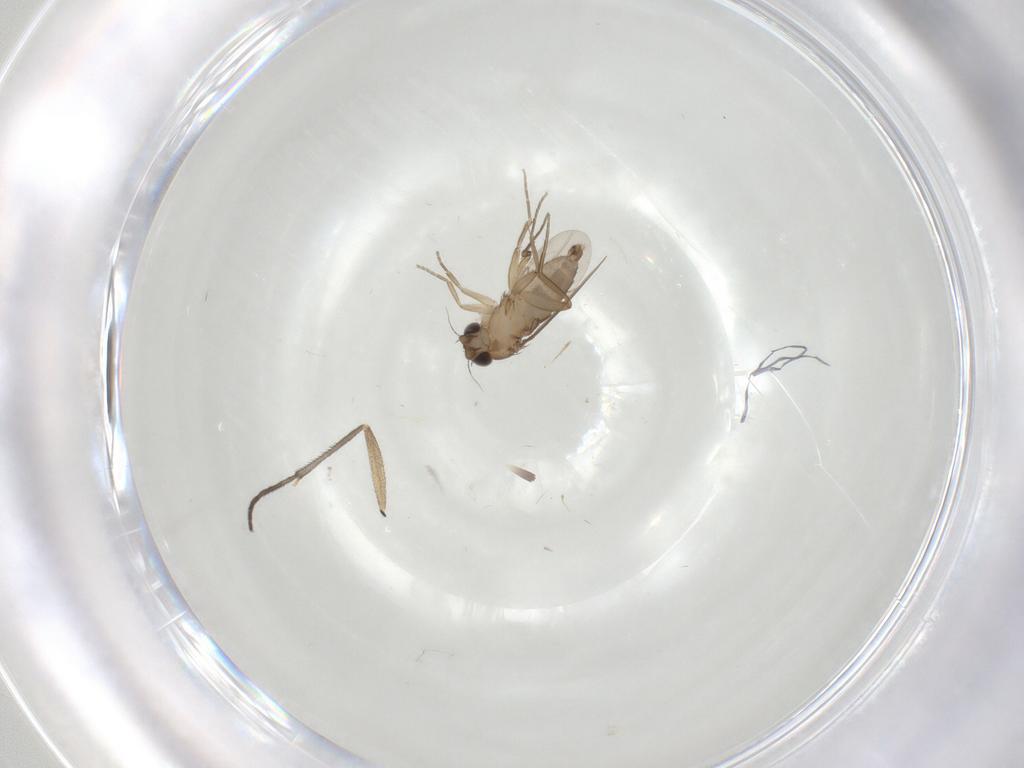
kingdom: Animalia
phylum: Arthropoda
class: Insecta
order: Diptera
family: Phoridae
